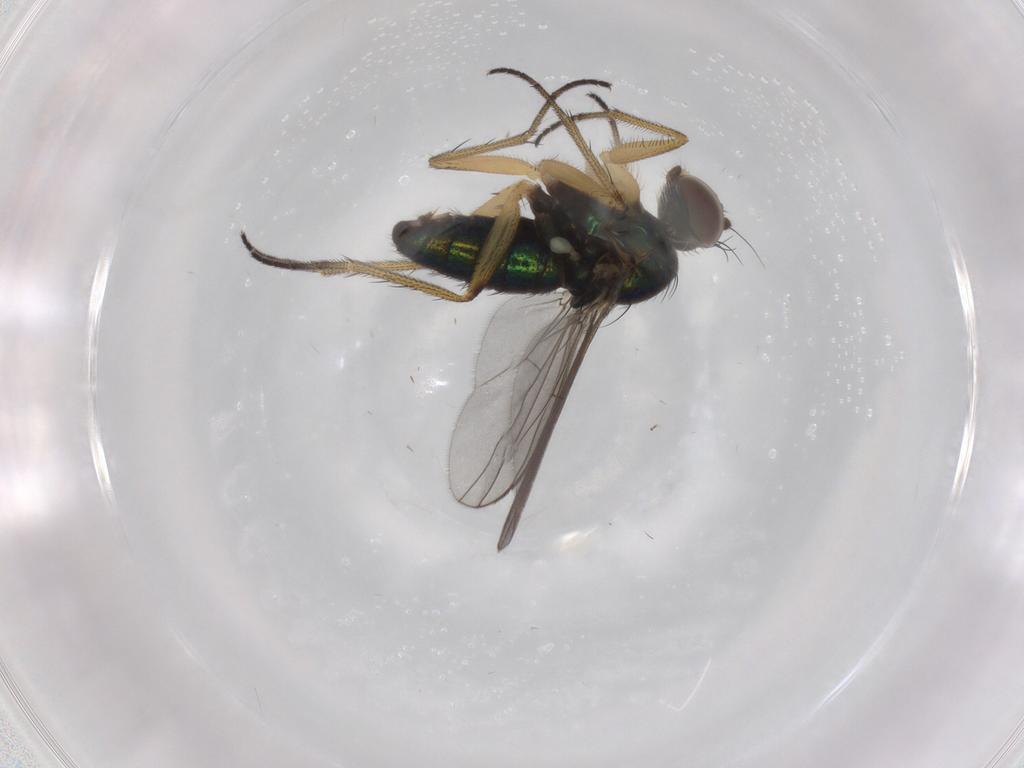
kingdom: Animalia
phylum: Arthropoda
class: Insecta
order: Diptera
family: Dolichopodidae
